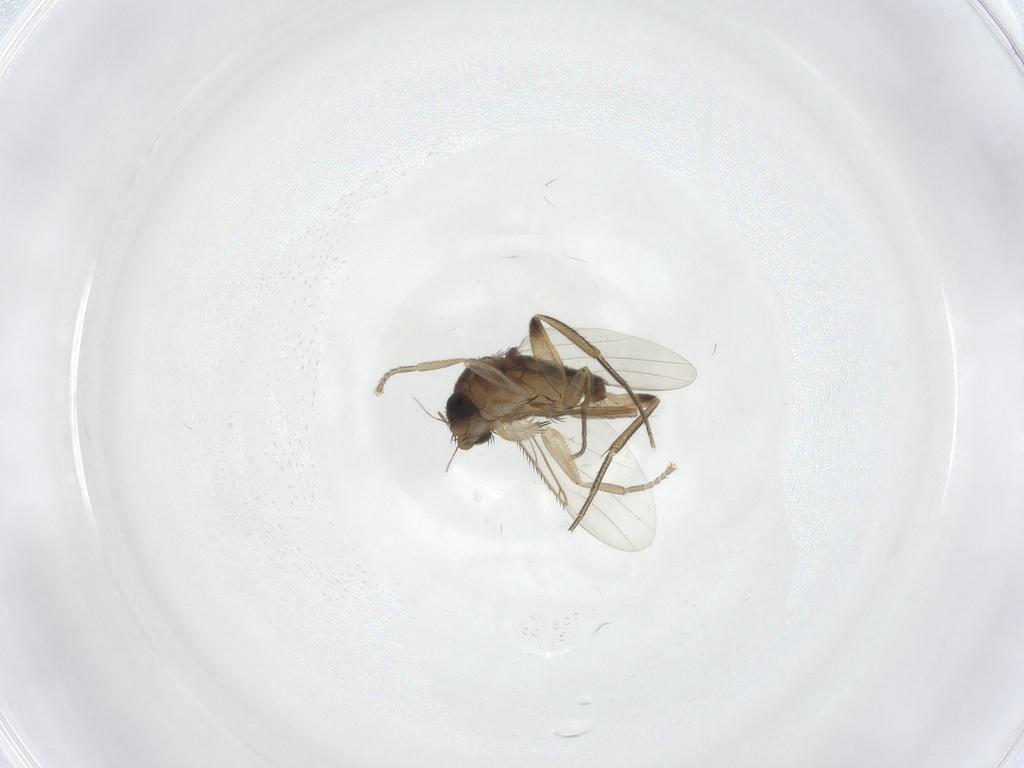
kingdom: Animalia
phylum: Arthropoda
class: Insecta
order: Diptera
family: Phoridae
